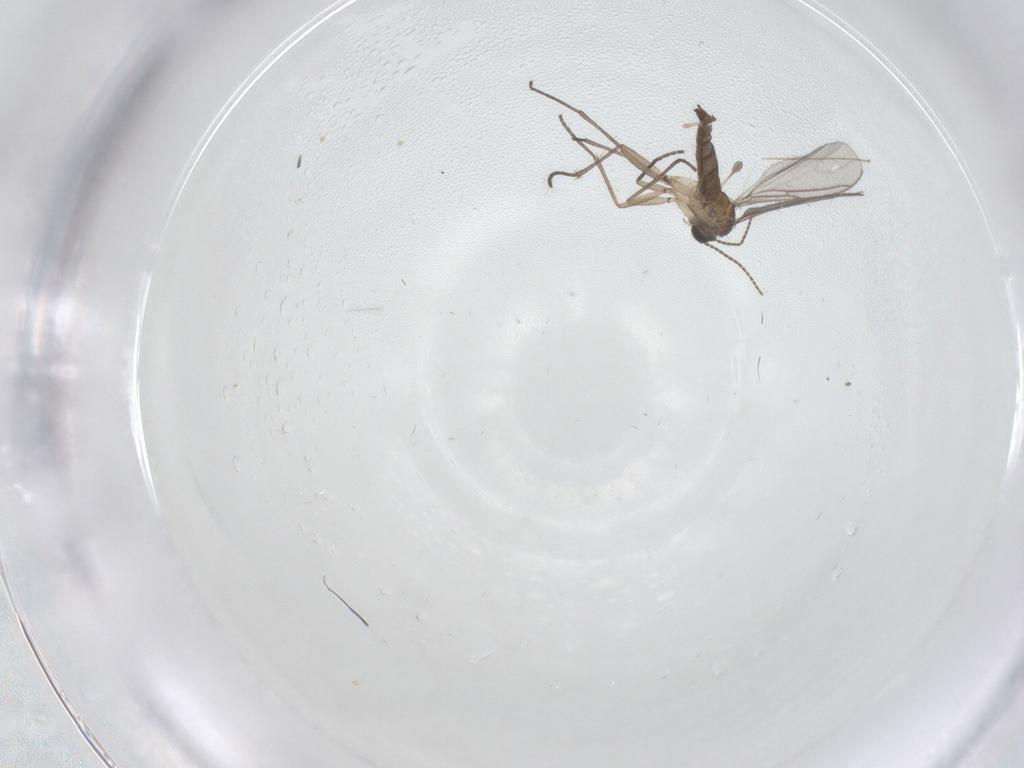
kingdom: Animalia
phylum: Arthropoda
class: Insecta
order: Diptera
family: Sciaridae
